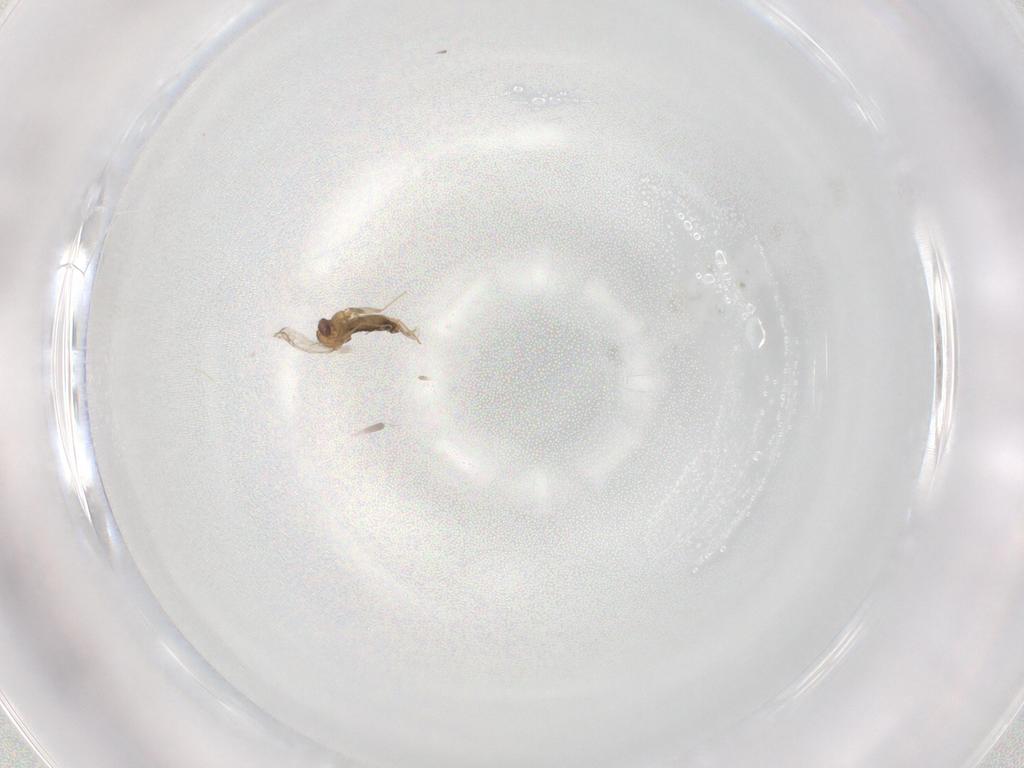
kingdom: Animalia
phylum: Arthropoda
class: Insecta
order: Diptera
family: Chironomidae
